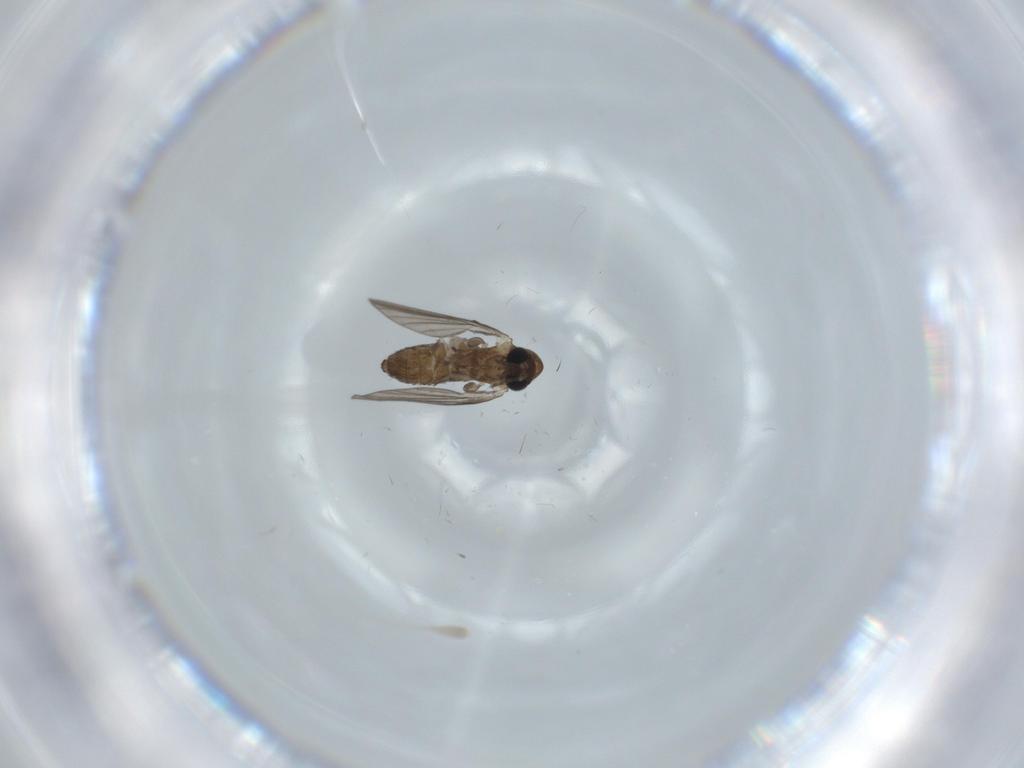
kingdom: Animalia
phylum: Arthropoda
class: Insecta
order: Diptera
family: Psychodidae
